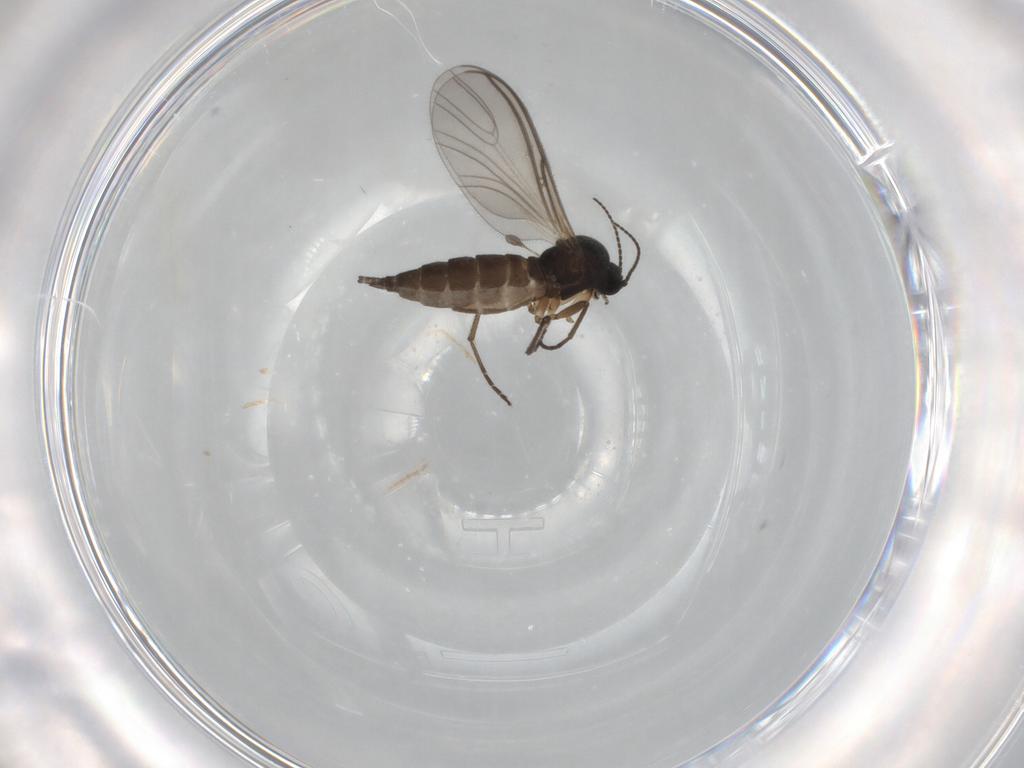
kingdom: Animalia
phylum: Arthropoda
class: Insecta
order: Diptera
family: Sciaridae
